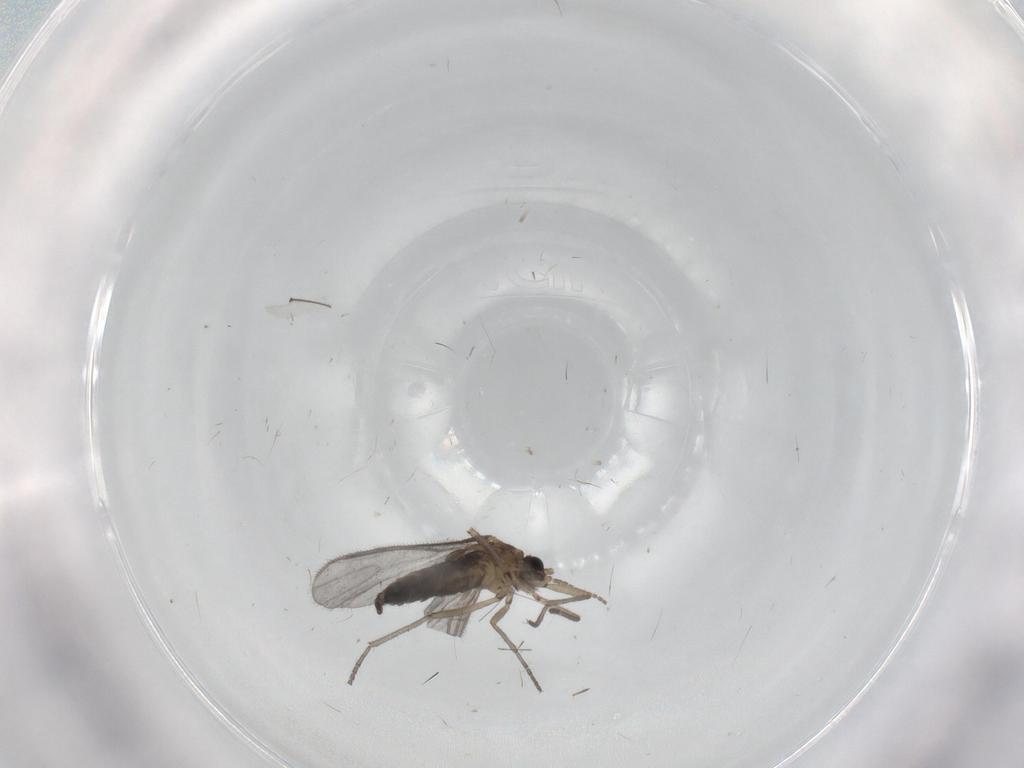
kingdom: Animalia
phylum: Arthropoda
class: Insecta
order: Diptera
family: Sciaridae
